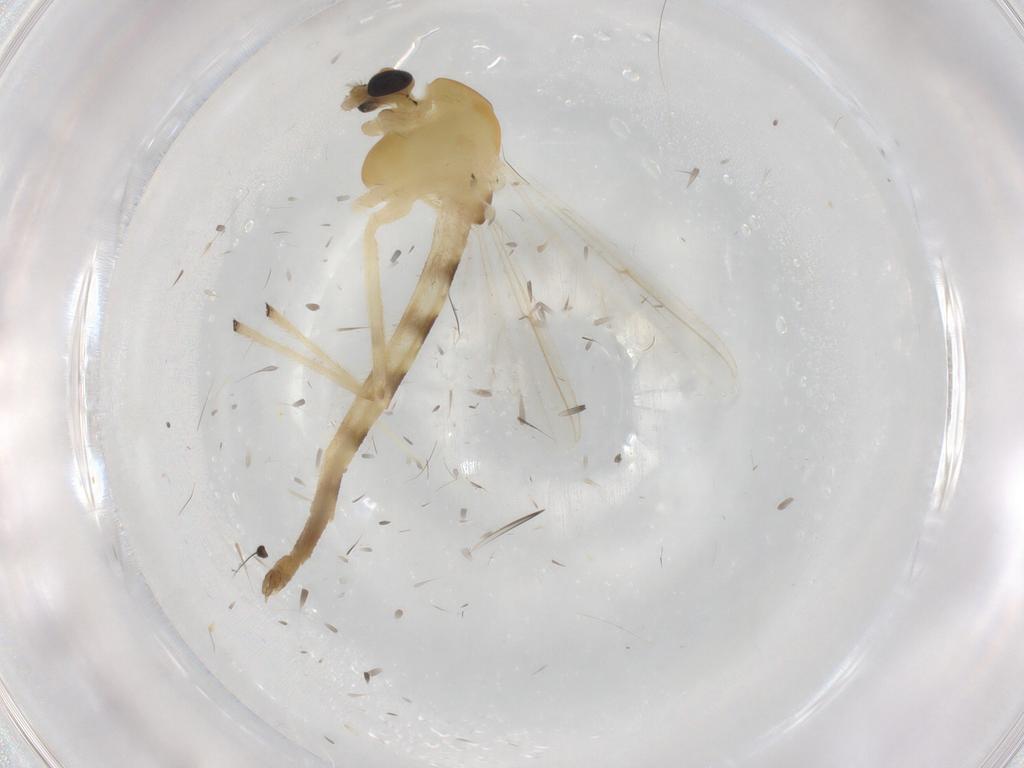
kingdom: Animalia
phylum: Arthropoda
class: Insecta
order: Diptera
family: Chironomidae
